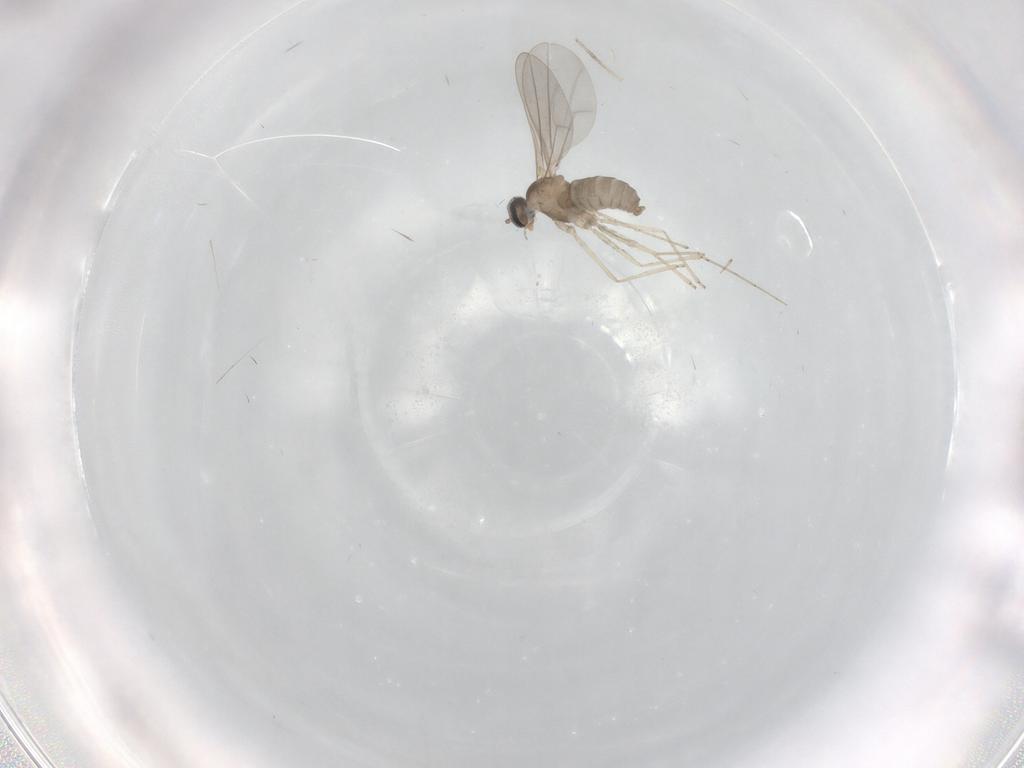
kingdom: Animalia
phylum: Arthropoda
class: Insecta
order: Diptera
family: Cecidomyiidae
